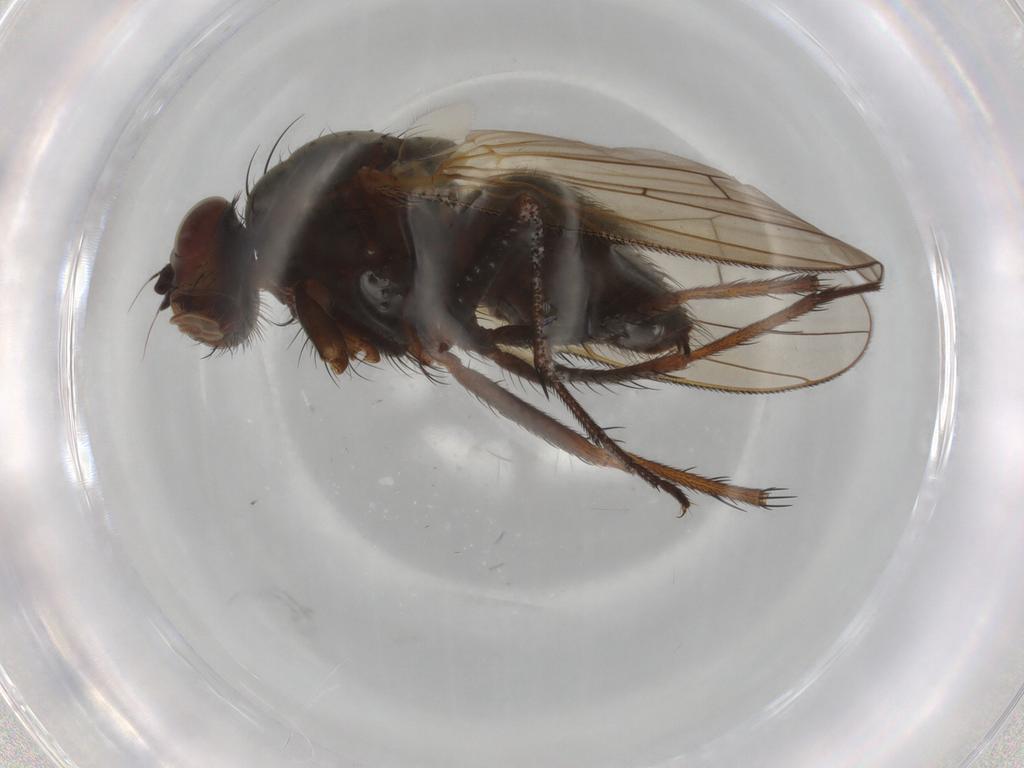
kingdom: Animalia
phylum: Arthropoda
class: Insecta
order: Diptera
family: Anthomyiidae
